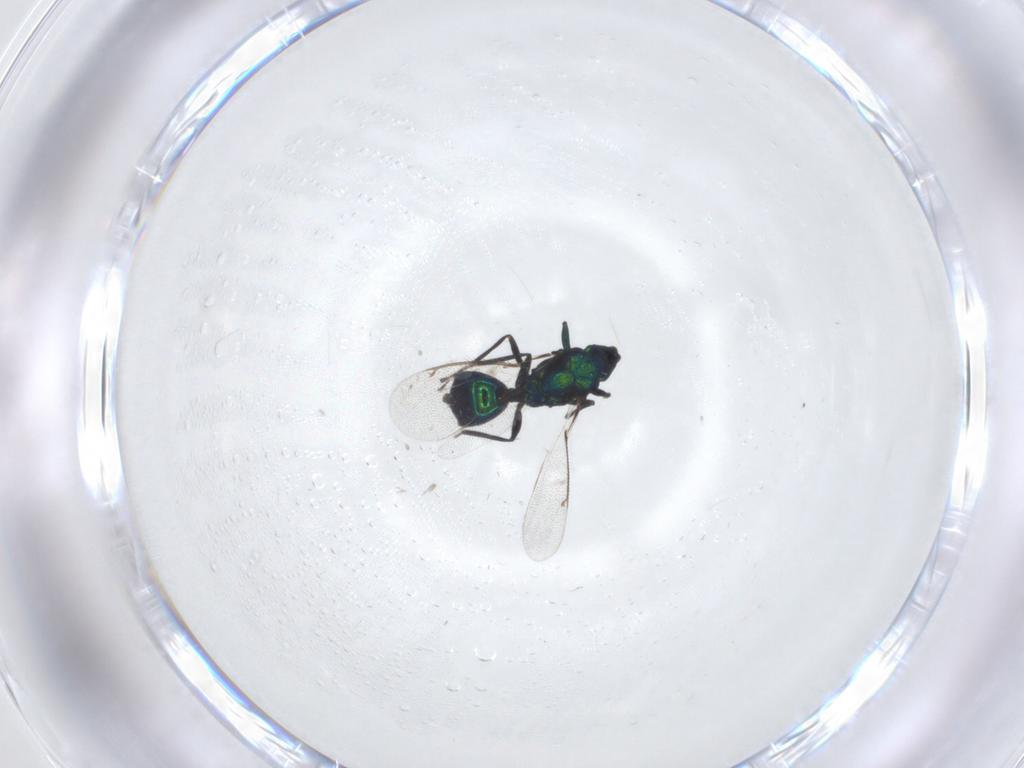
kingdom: Animalia
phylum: Arthropoda
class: Insecta
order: Hymenoptera
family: Eulophidae
